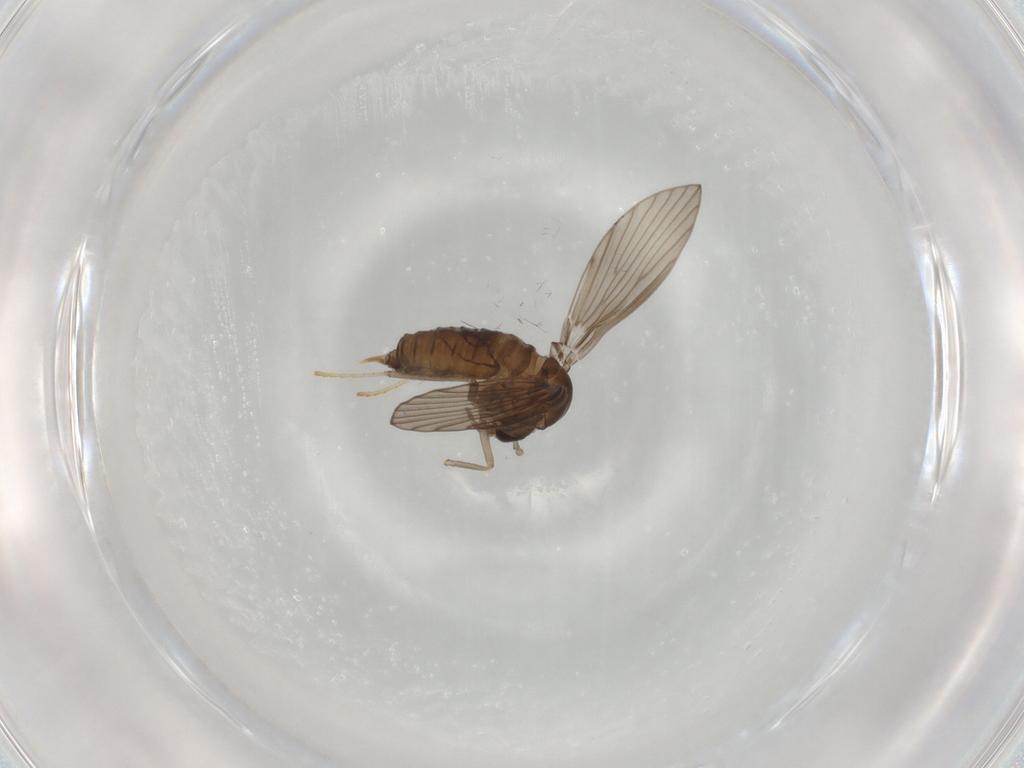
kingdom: Animalia
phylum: Arthropoda
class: Insecta
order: Diptera
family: Psychodidae
